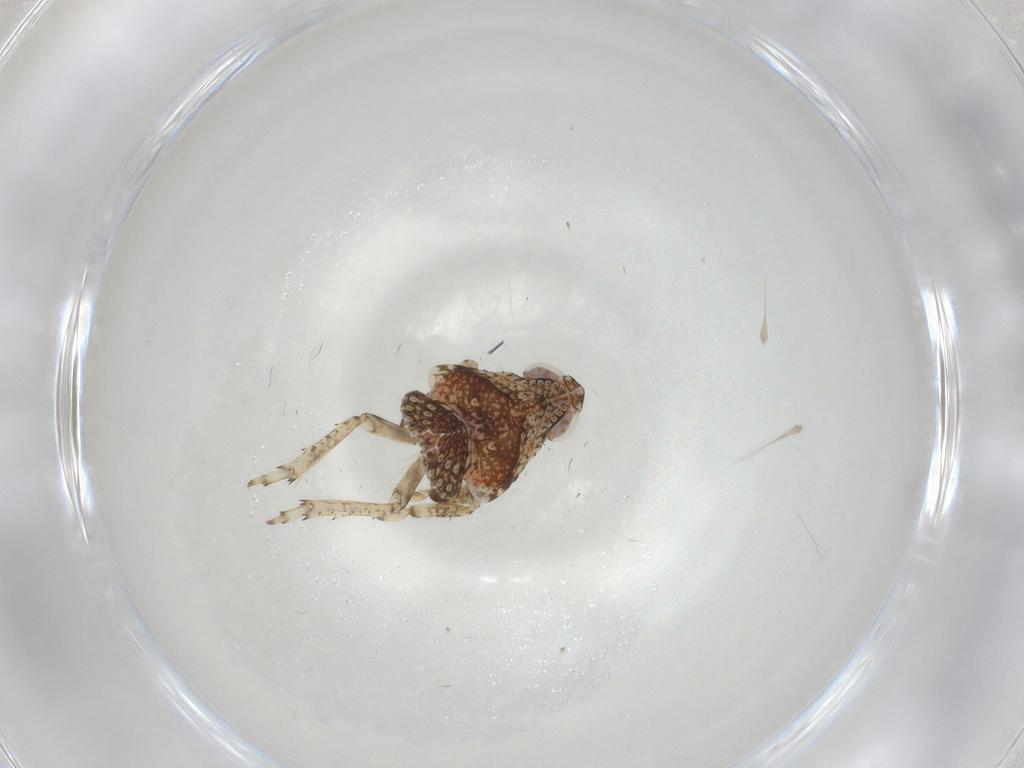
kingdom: Animalia
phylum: Arthropoda
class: Insecta
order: Hemiptera
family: Issidae
